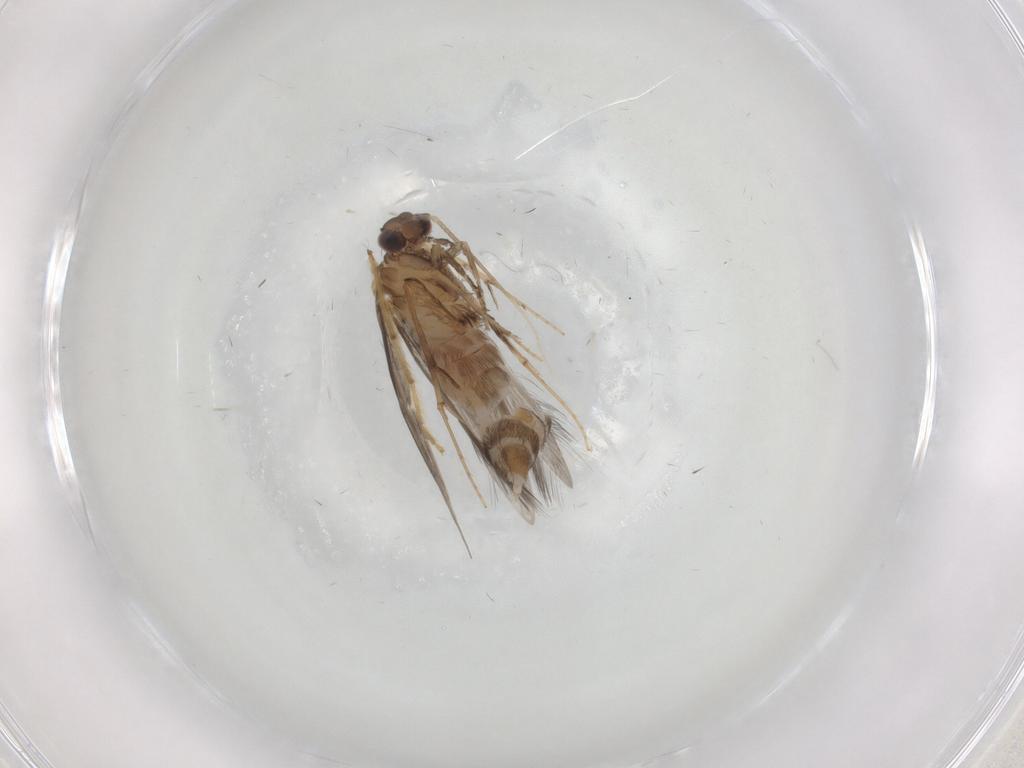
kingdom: Animalia
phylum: Arthropoda
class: Insecta
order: Trichoptera
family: Hydroptilidae
